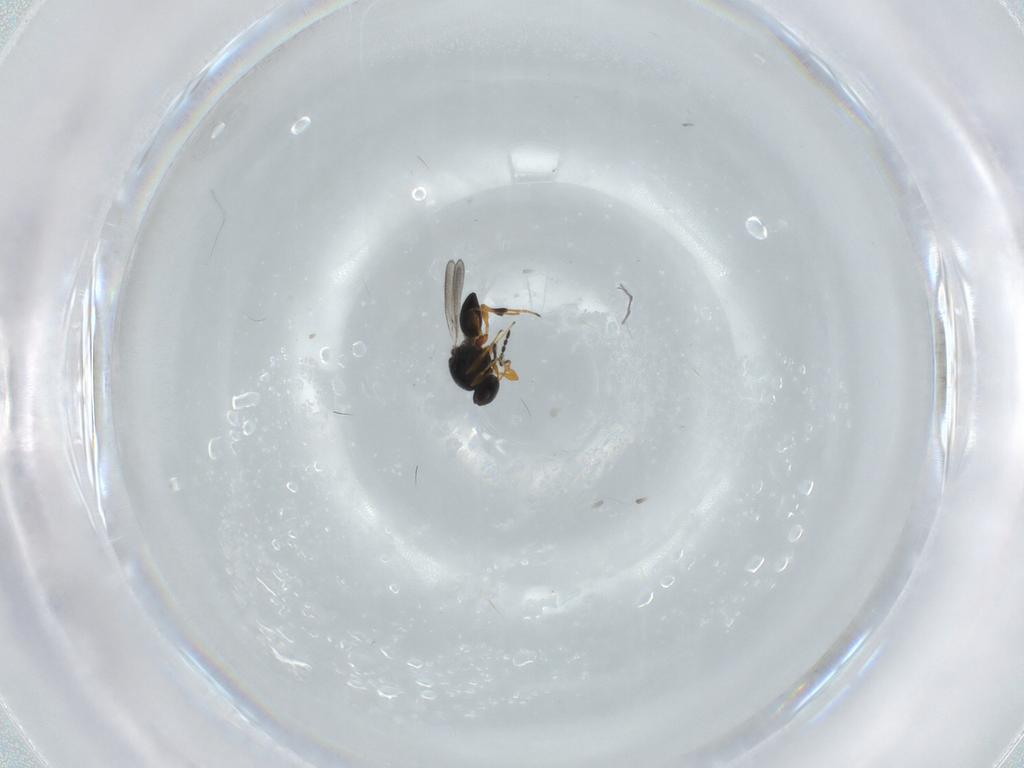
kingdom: Animalia
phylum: Arthropoda
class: Insecta
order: Hymenoptera
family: Platygastridae
